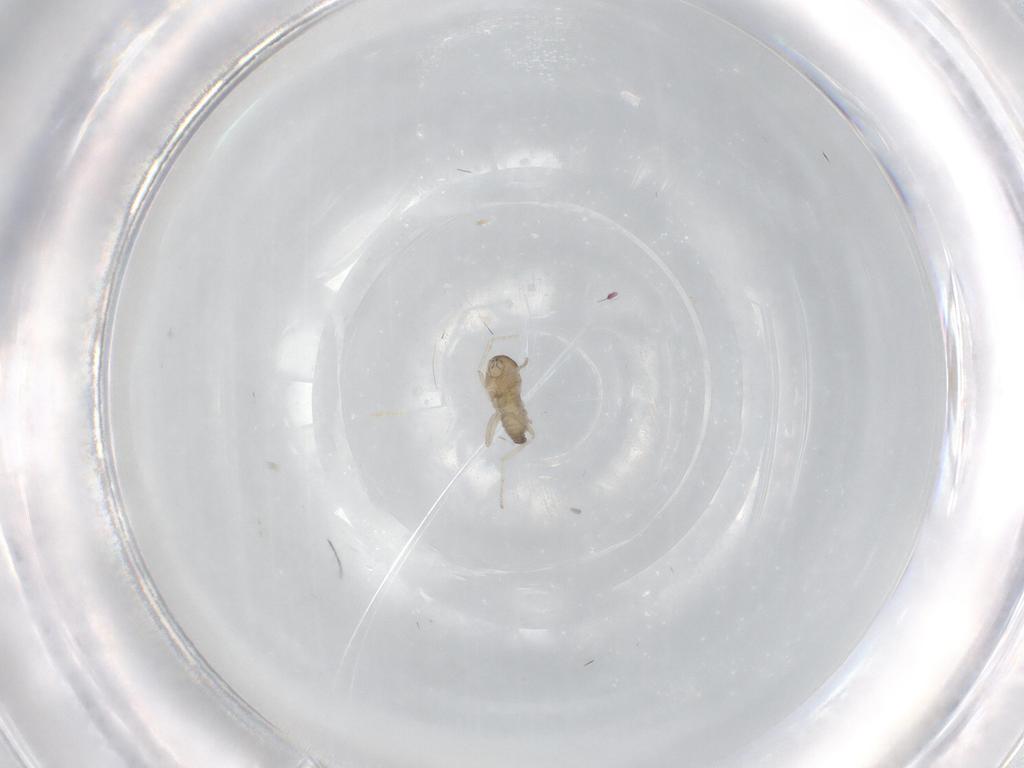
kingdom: Animalia
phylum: Arthropoda
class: Insecta
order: Diptera
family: Cecidomyiidae
